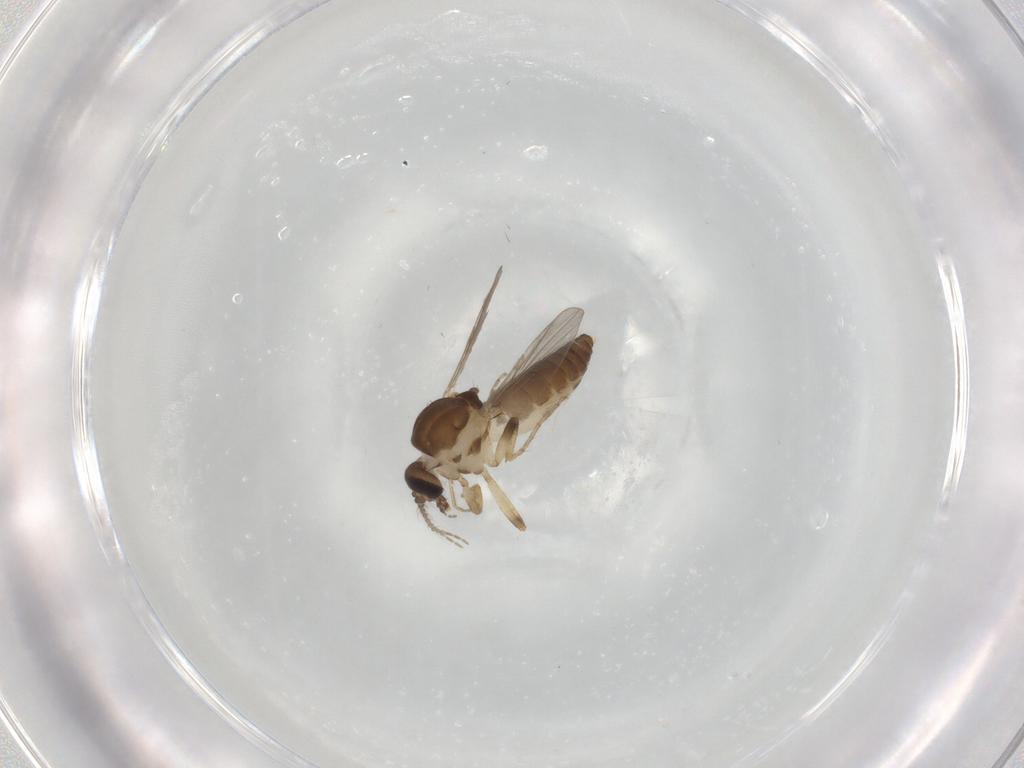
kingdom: Animalia
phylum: Arthropoda
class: Insecta
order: Diptera
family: Ceratopogonidae
